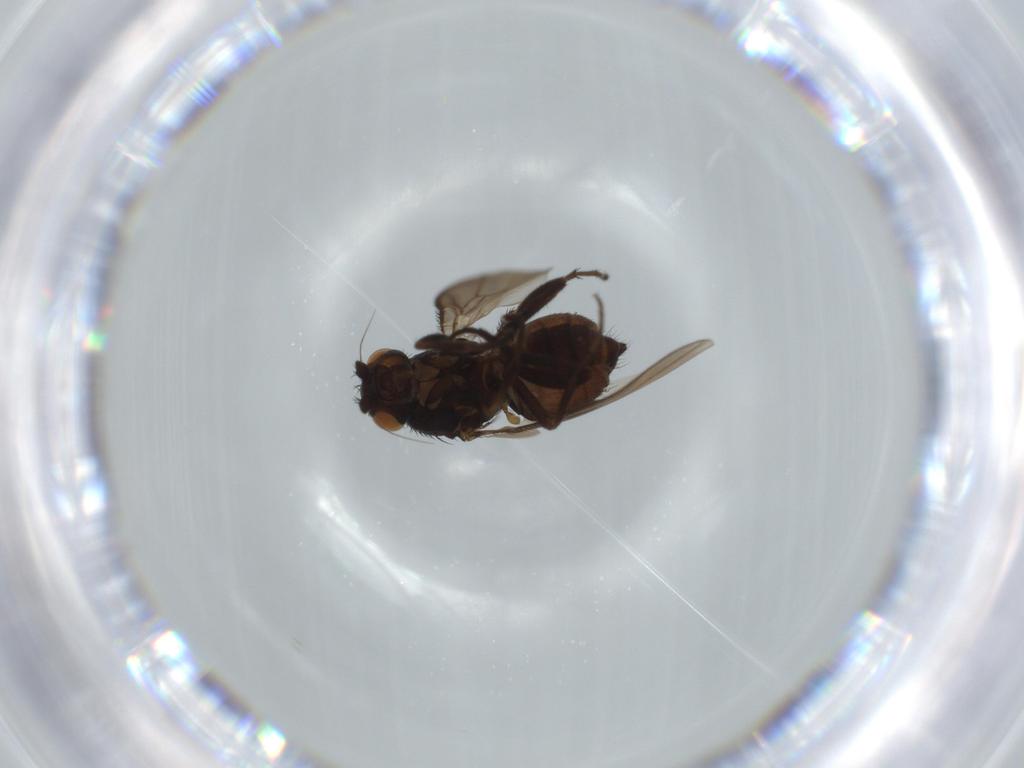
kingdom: Animalia
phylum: Arthropoda
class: Insecta
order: Diptera
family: Sphaeroceridae
